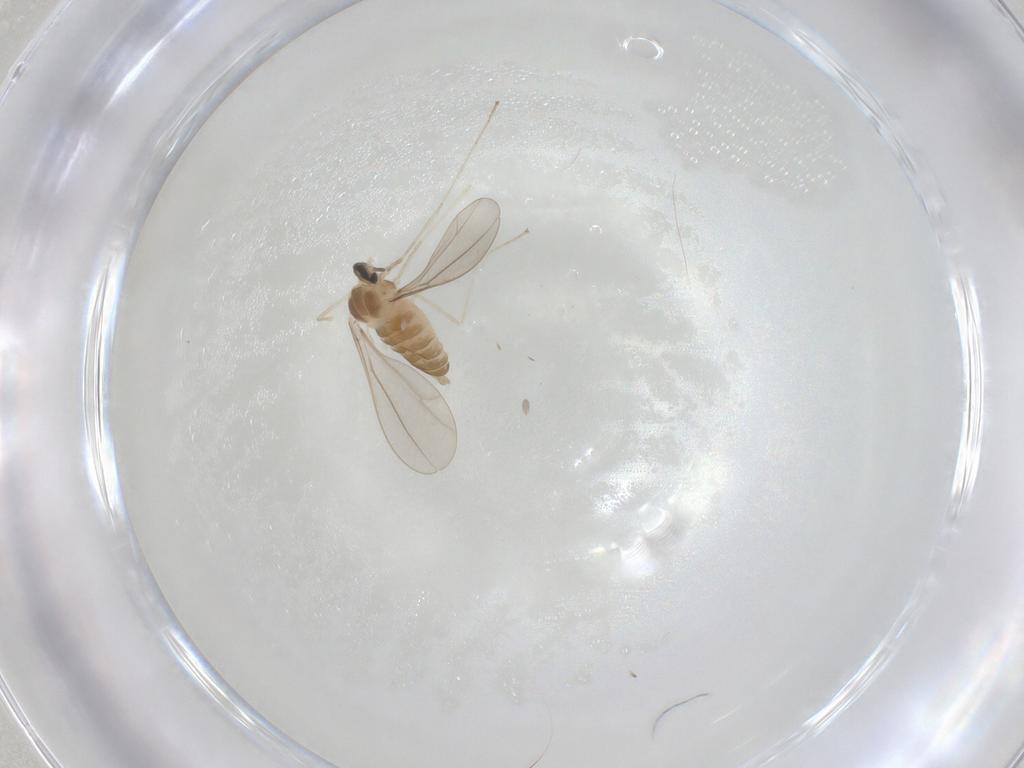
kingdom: Animalia
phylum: Arthropoda
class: Insecta
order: Diptera
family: Cecidomyiidae
